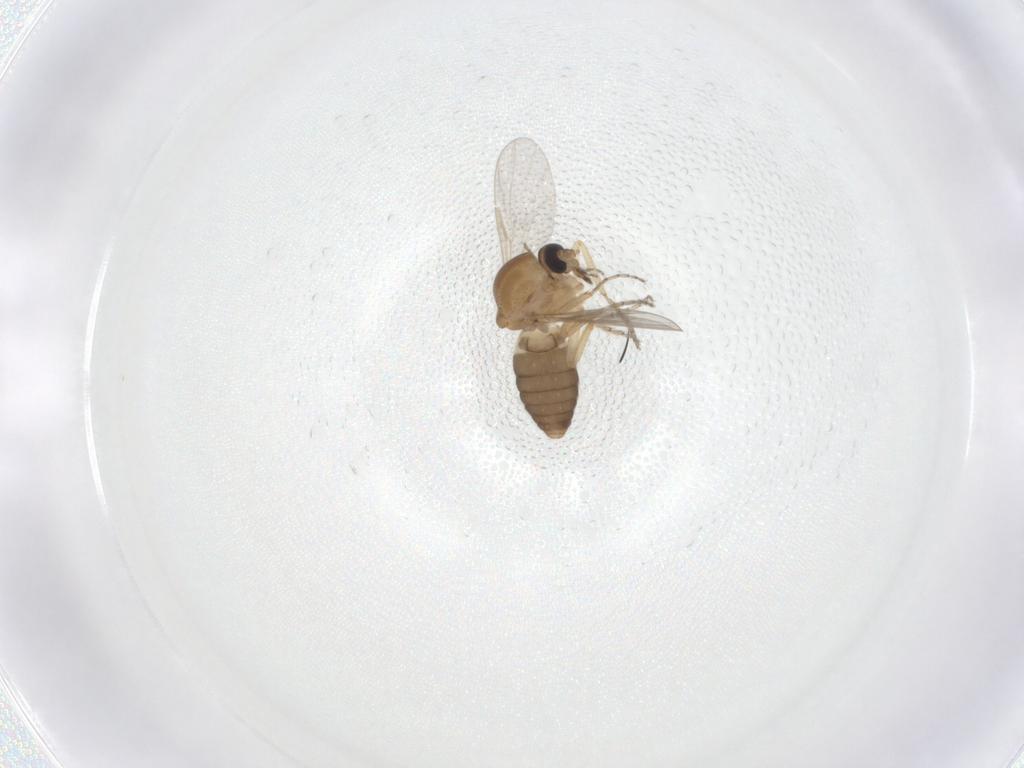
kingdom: Animalia
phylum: Arthropoda
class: Insecta
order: Diptera
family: Ceratopogonidae
